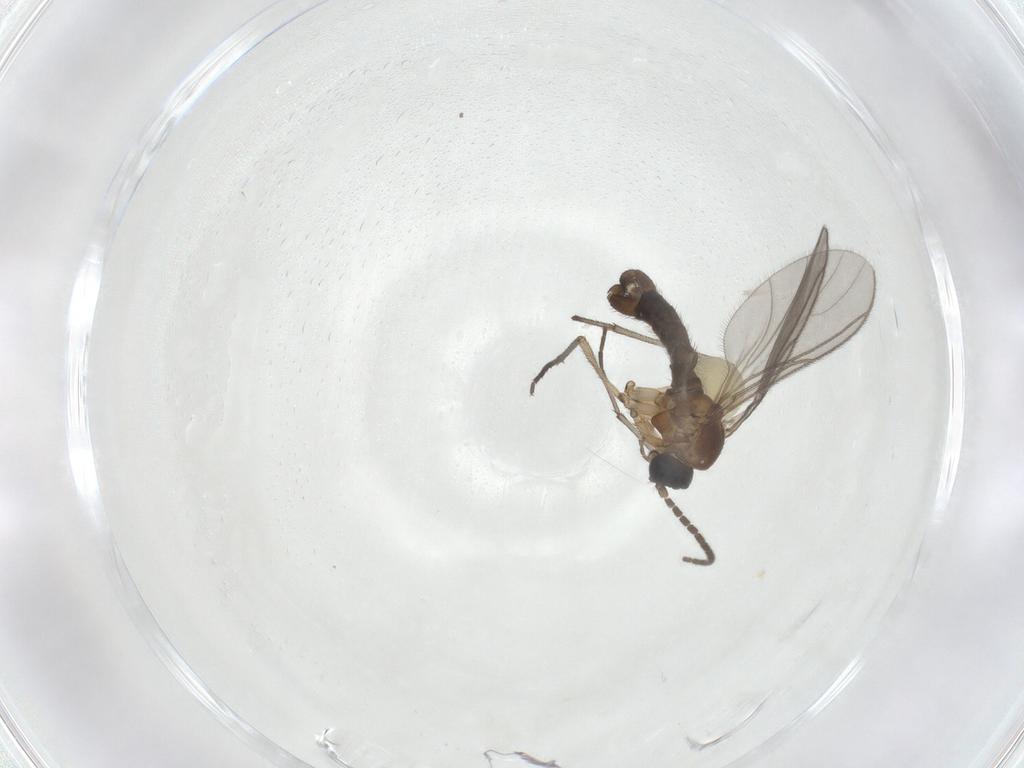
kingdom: Animalia
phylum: Arthropoda
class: Insecta
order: Diptera
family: Sciaridae
